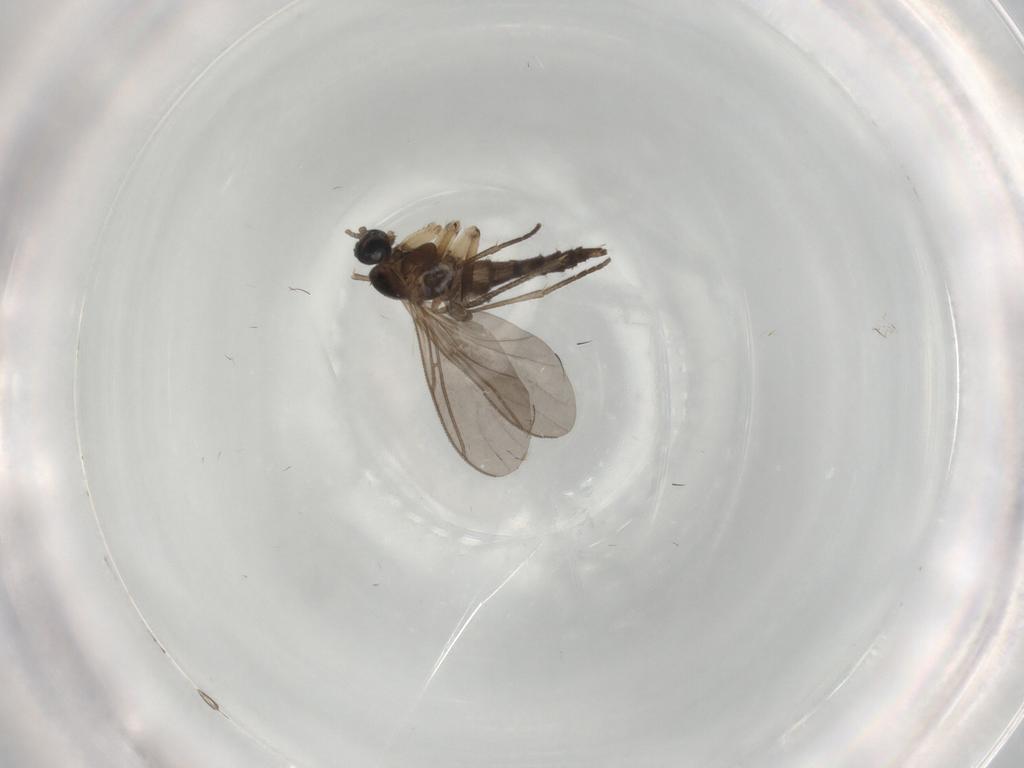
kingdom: Animalia
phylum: Arthropoda
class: Insecta
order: Diptera
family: Sciaridae
